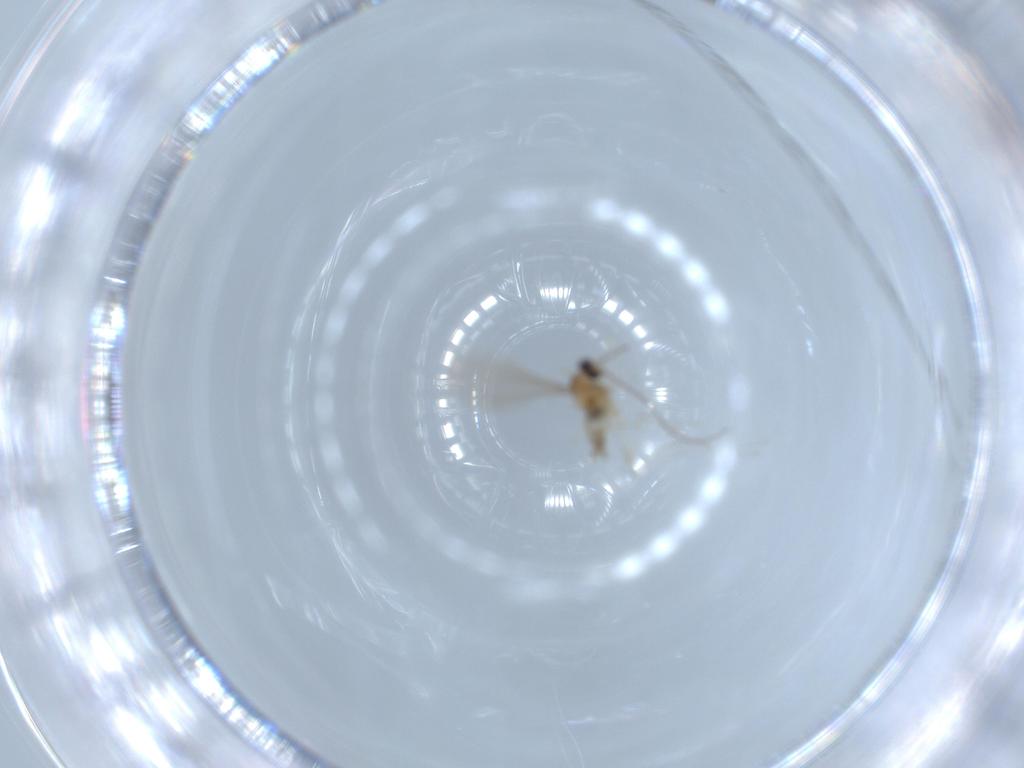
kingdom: Animalia
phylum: Arthropoda
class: Insecta
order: Diptera
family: Cecidomyiidae
